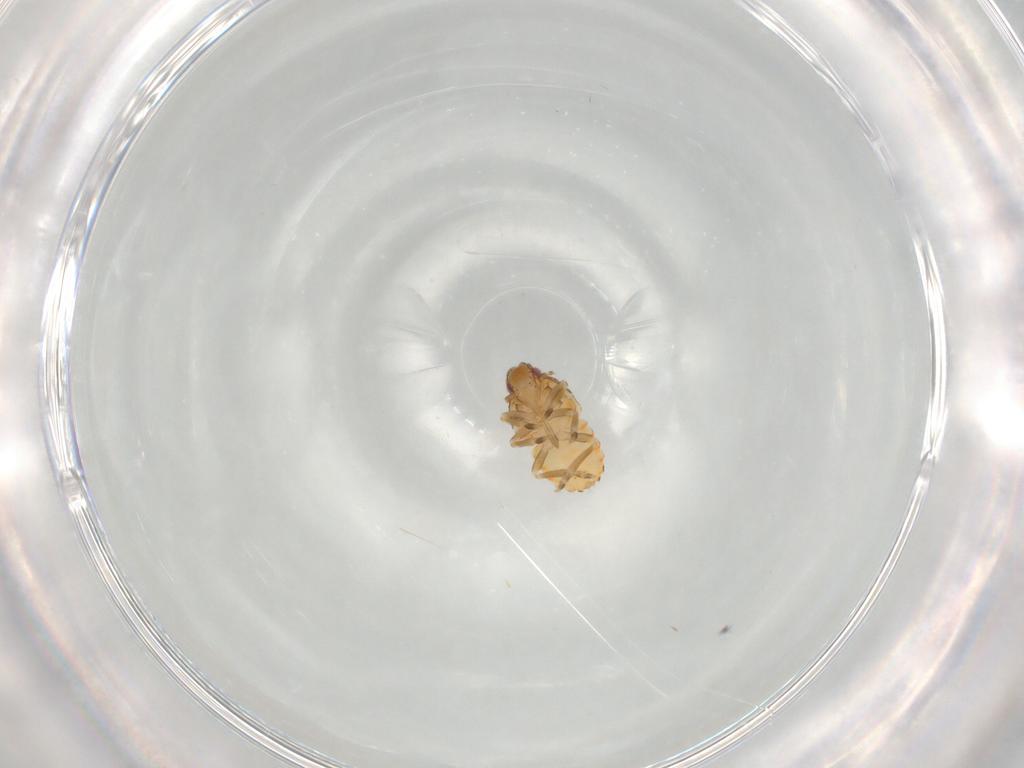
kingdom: Animalia
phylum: Arthropoda
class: Insecta
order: Hemiptera
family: Flatidae
